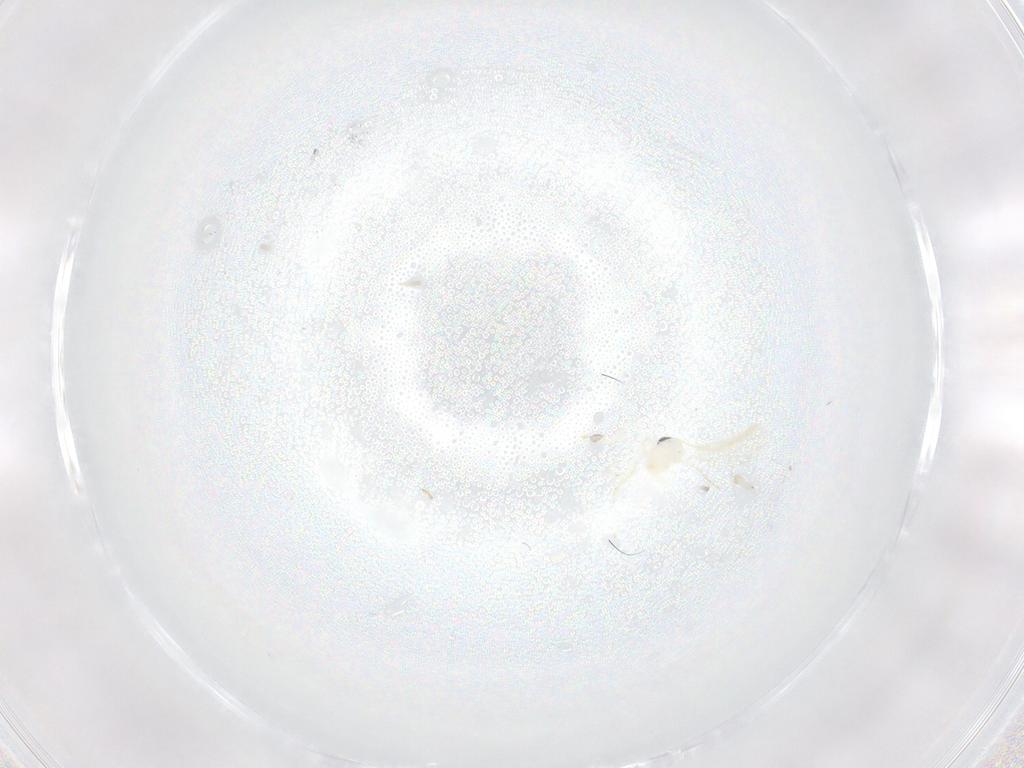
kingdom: Animalia
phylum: Arthropoda
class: Insecta
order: Diptera
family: Cecidomyiidae
